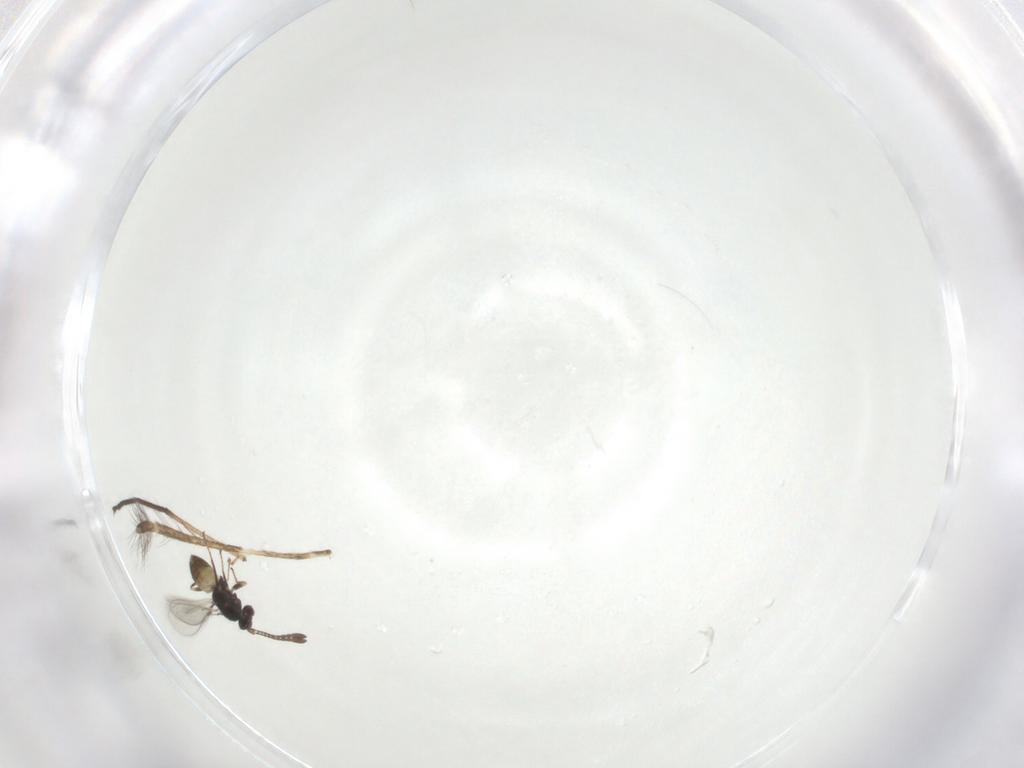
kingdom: Animalia
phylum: Arthropoda
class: Insecta
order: Hymenoptera
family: Mymaridae
